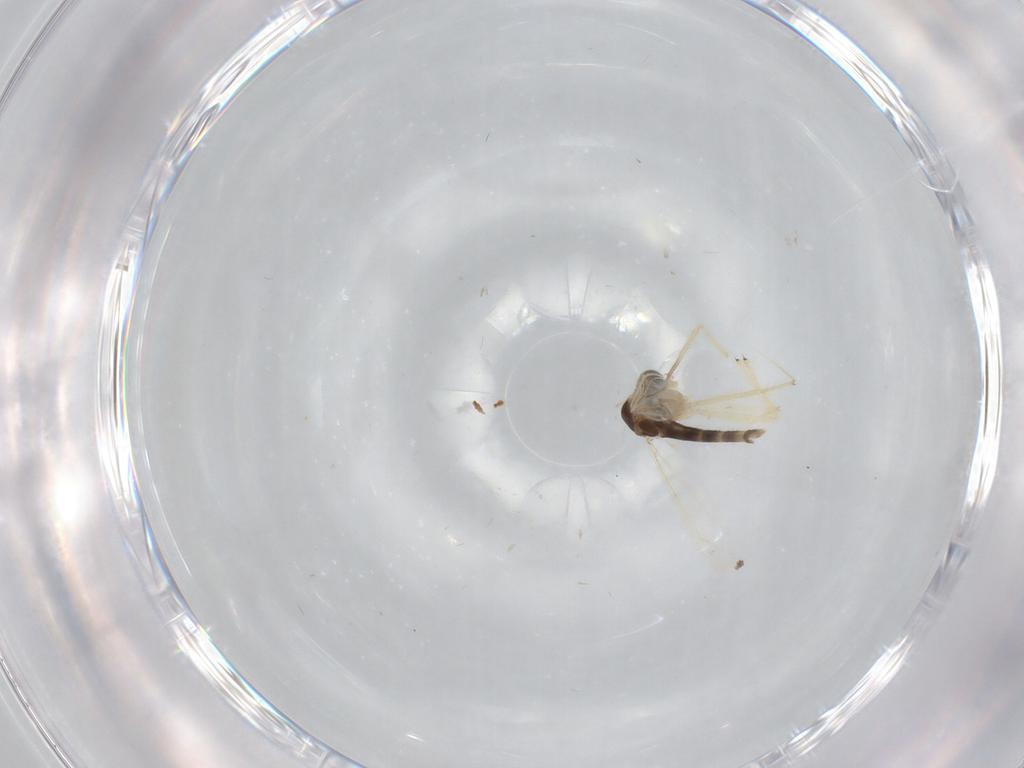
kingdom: Animalia
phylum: Arthropoda
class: Insecta
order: Diptera
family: Chironomidae
